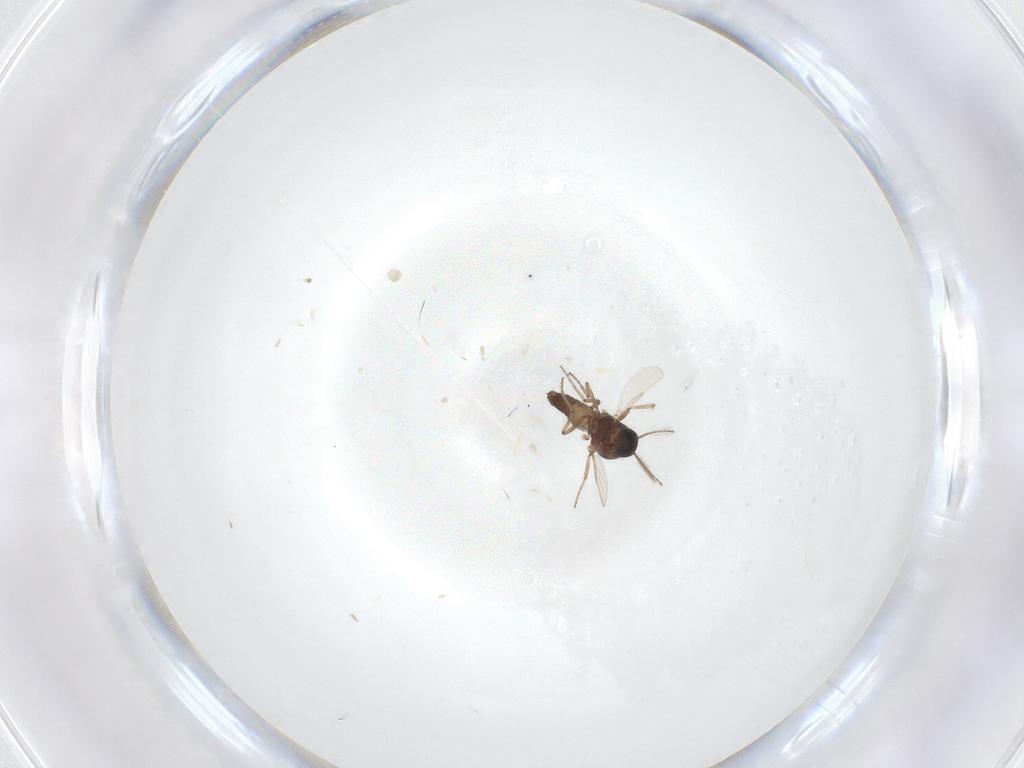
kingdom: Animalia
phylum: Arthropoda
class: Insecta
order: Diptera
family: Ceratopogonidae
